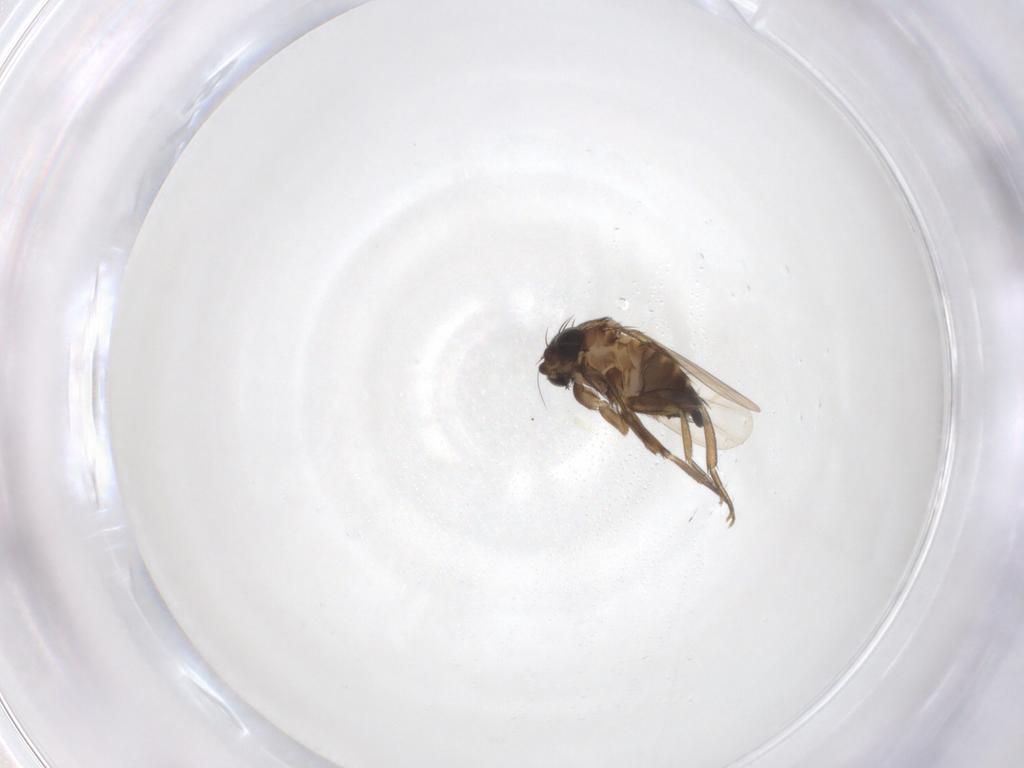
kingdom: Animalia
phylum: Arthropoda
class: Insecta
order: Diptera
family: Phoridae
